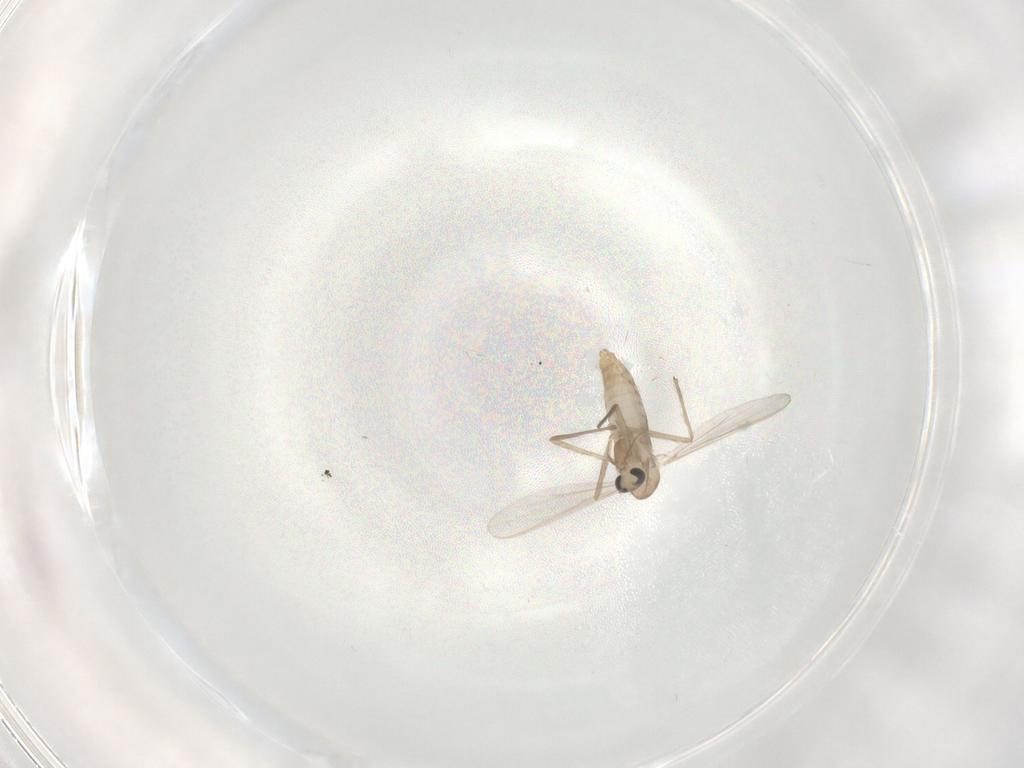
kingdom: Animalia
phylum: Arthropoda
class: Insecta
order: Diptera
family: Chironomidae
